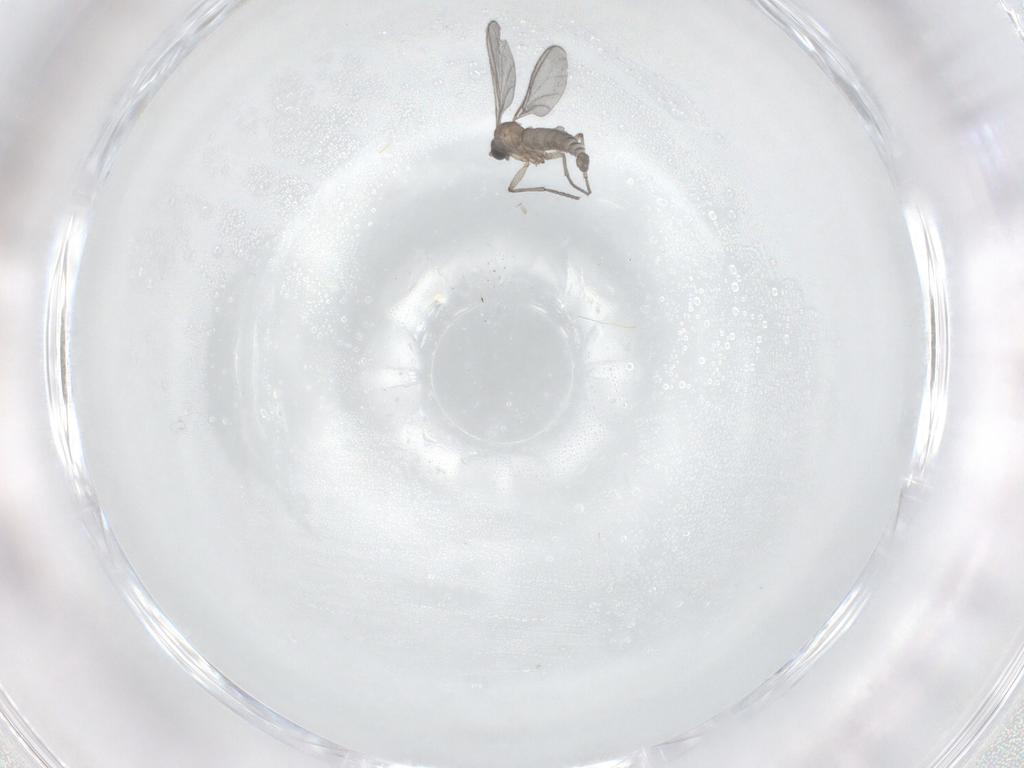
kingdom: Animalia
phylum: Arthropoda
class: Insecta
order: Diptera
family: Sciaridae
